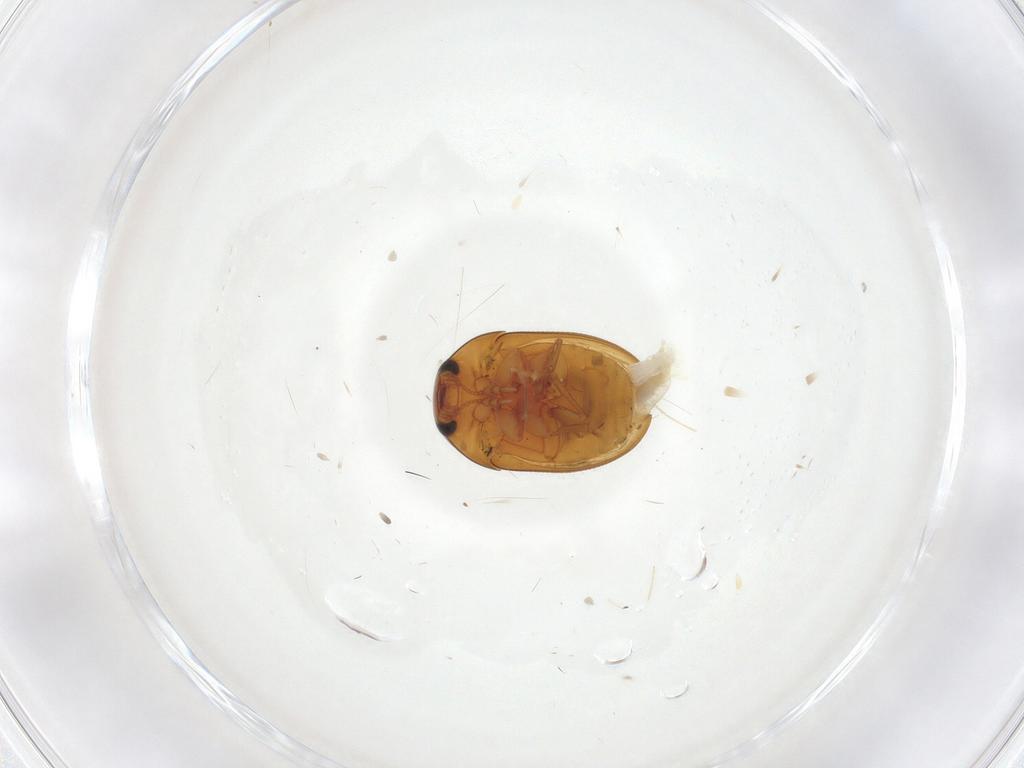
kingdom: Animalia
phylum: Arthropoda
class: Insecta
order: Coleoptera
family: Phalacridae
